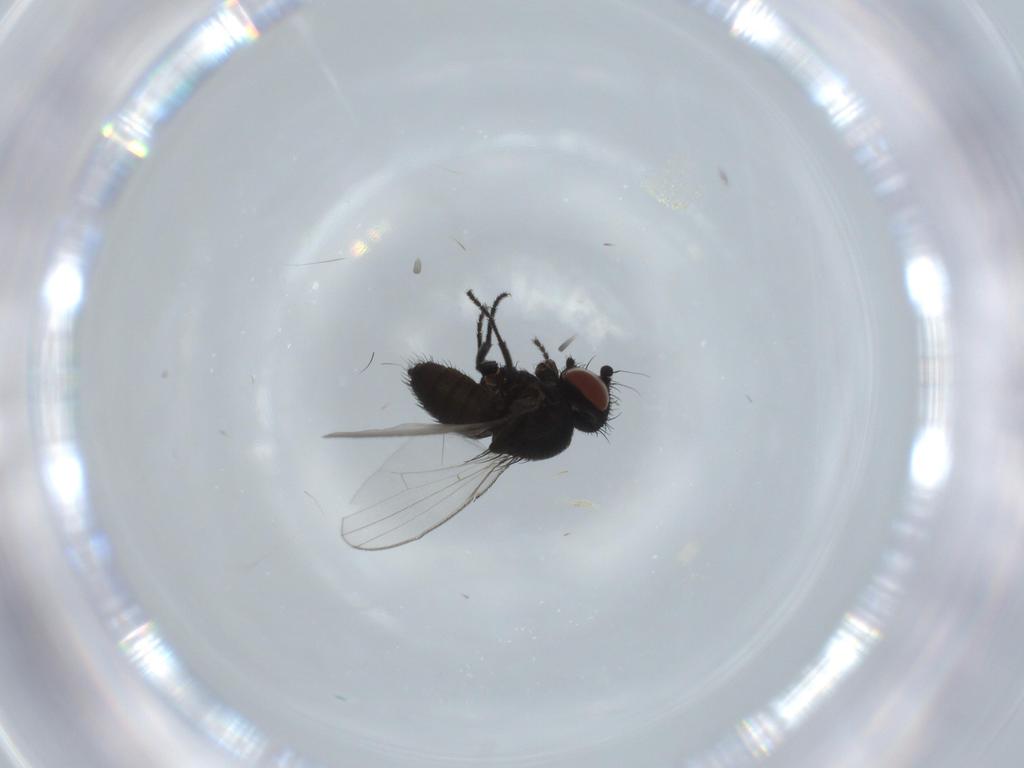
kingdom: Animalia
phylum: Arthropoda
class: Insecta
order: Diptera
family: Milichiidae
